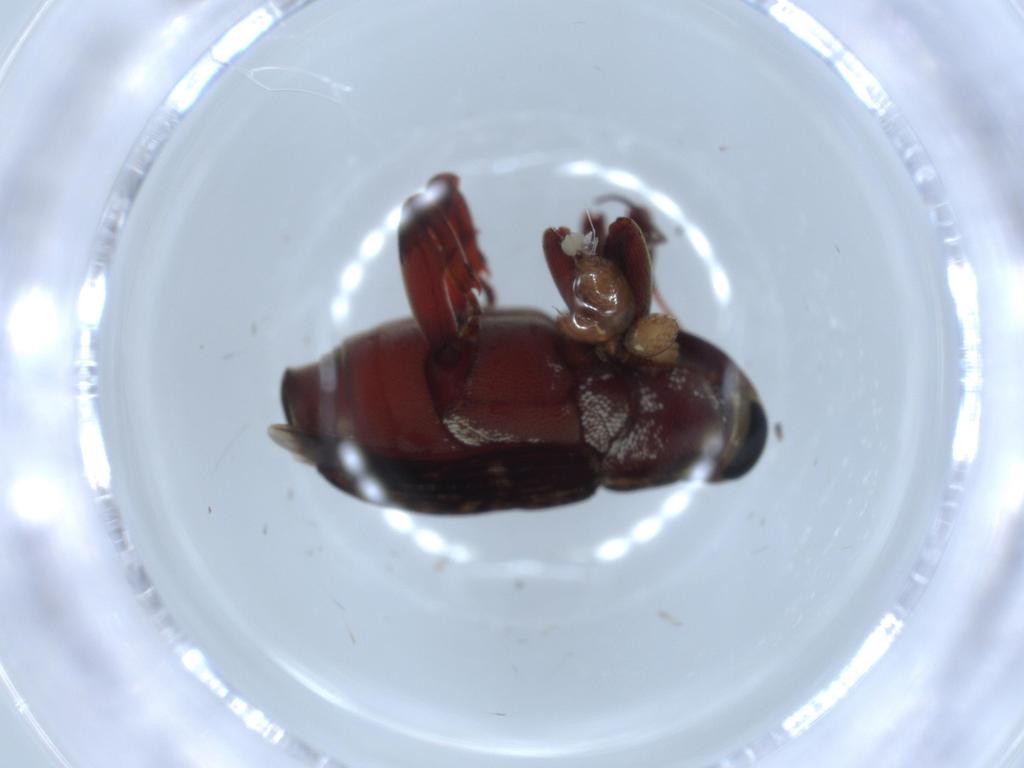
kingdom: Animalia
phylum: Arthropoda
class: Insecta
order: Coleoptera
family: Curculionidae
